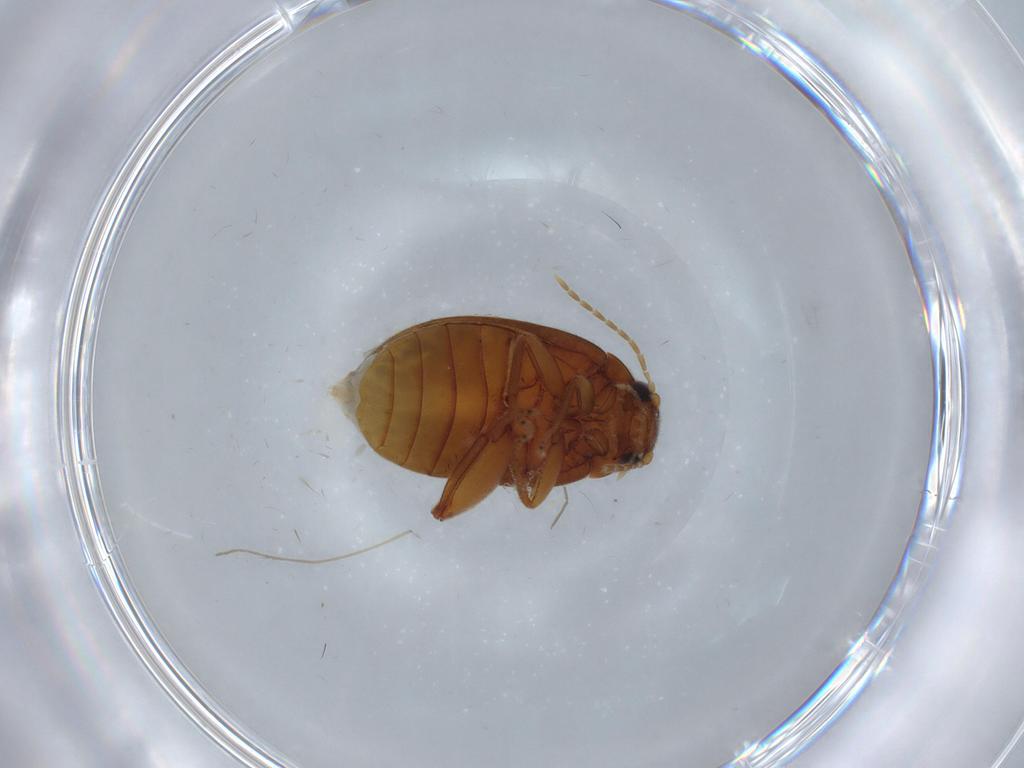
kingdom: Animalia
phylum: Arthropoda
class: Insecta
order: Coleoptera
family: Scirtidae
